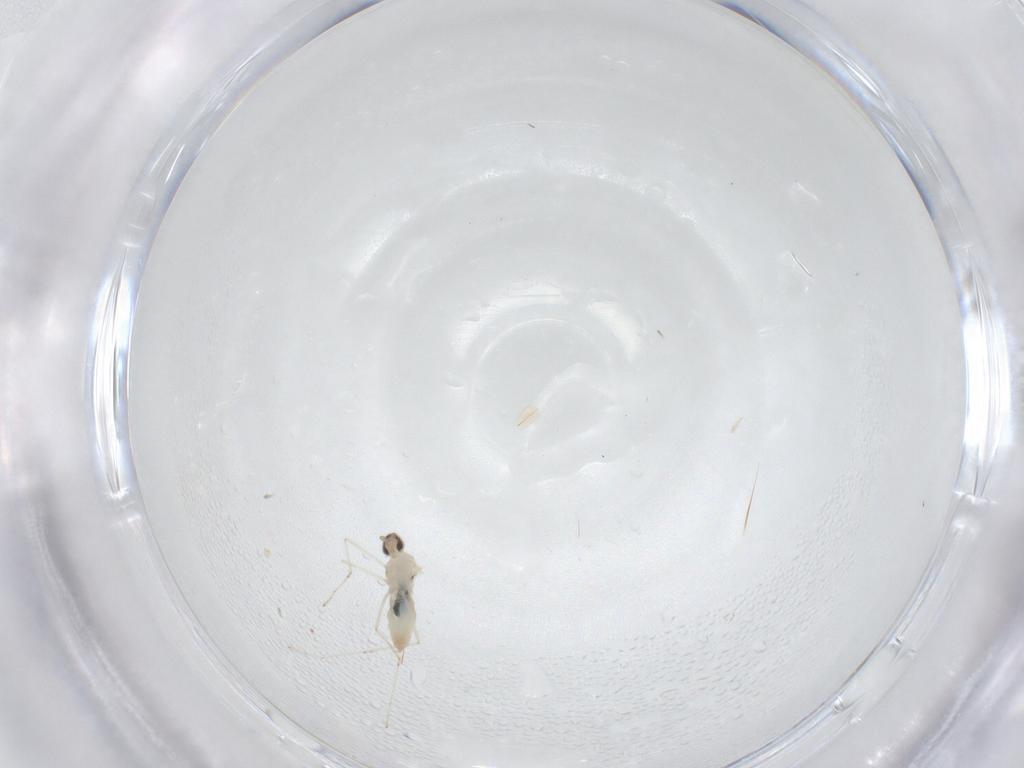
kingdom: Animalia
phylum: Arthropoda
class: Insecta
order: Diptera
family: Cecidomyiidae
